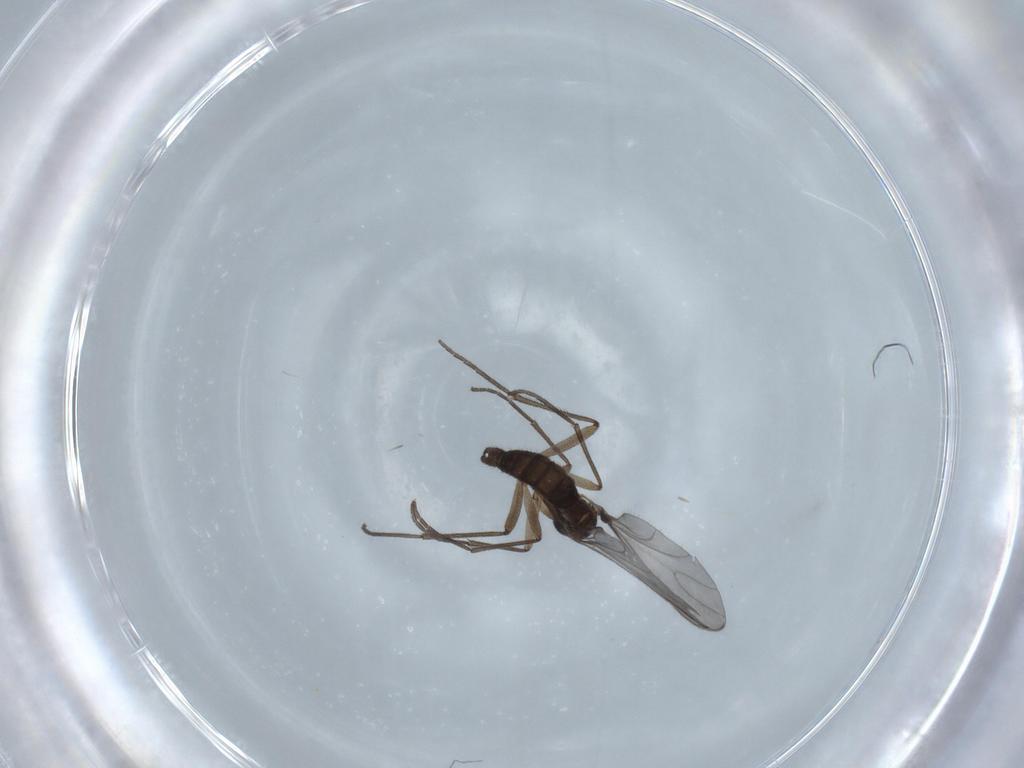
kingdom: Animalia
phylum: Arthropoda
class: Insecta
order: Diptera
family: Sciaridae
